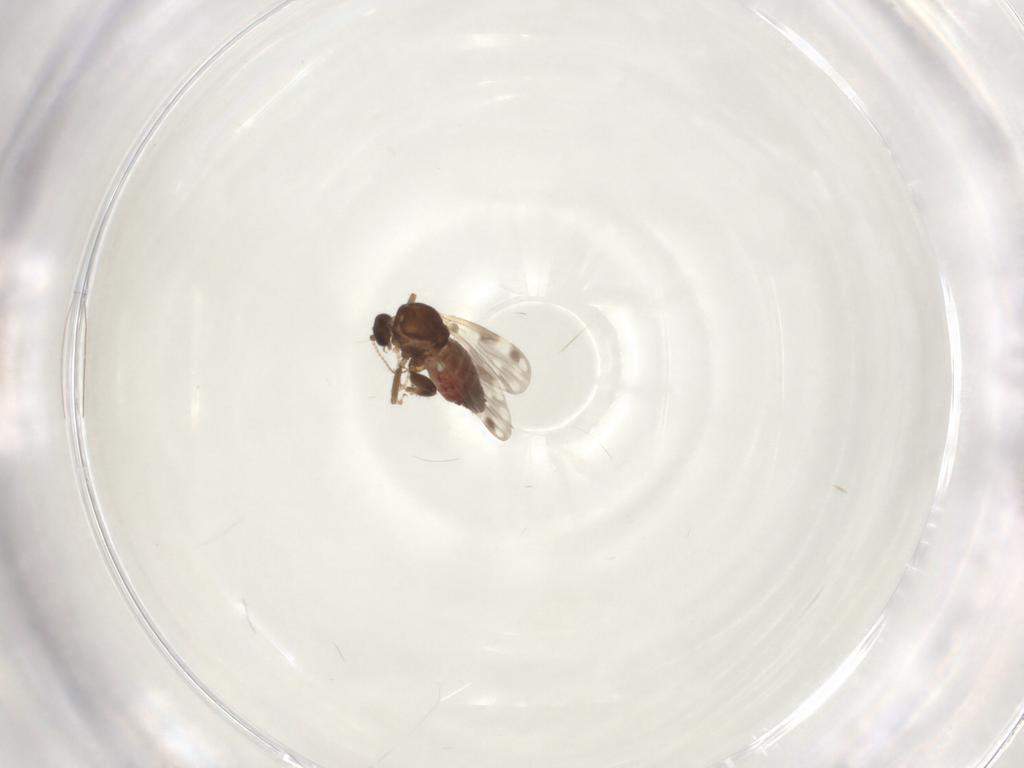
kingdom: Animalia
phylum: Arthropoda
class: Insecta
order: Diptera
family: Ceratopogonidae
